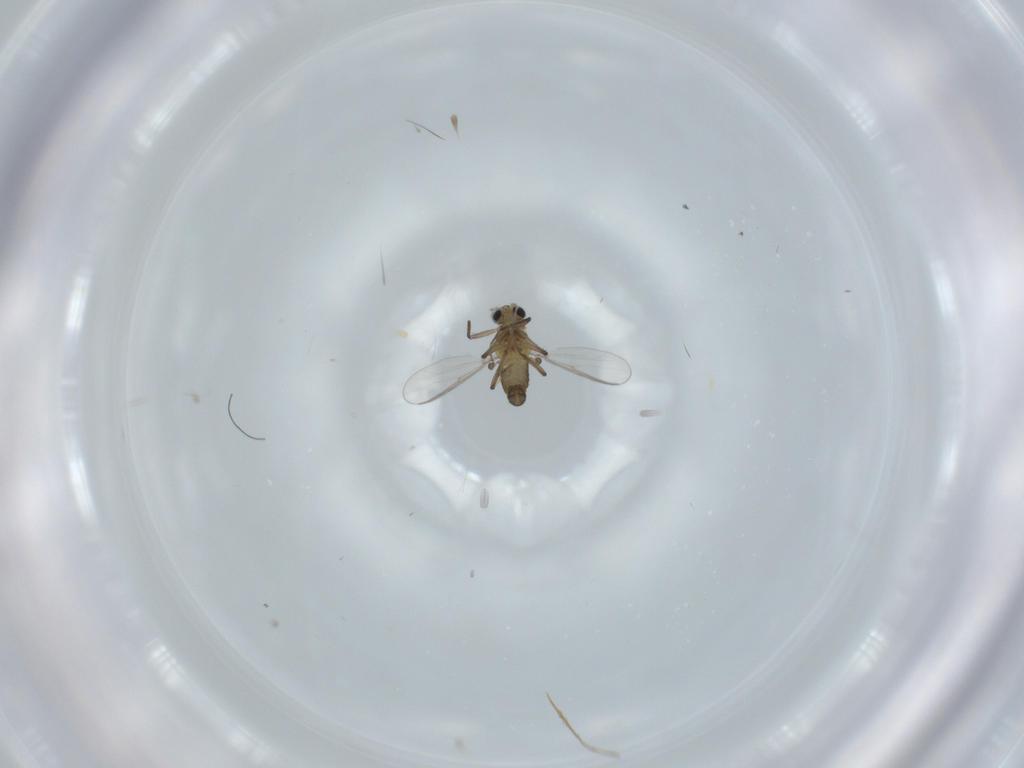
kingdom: Animalia
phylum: Arthropoda
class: Insecta
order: Diptera
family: Chironomidae
